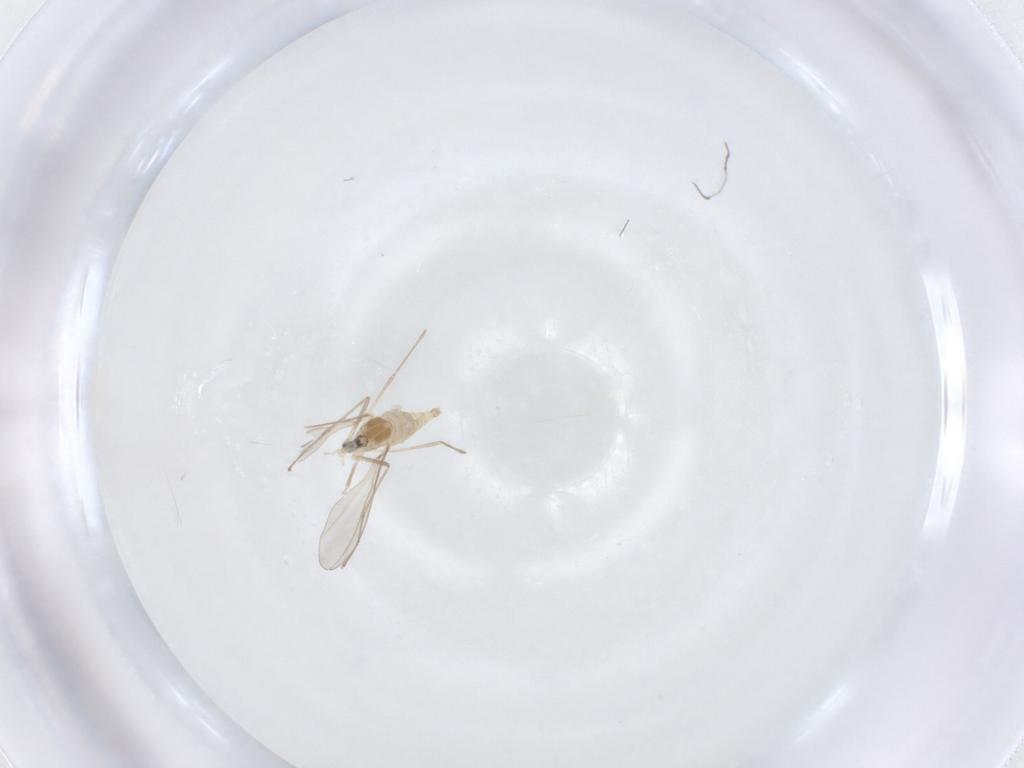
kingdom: Animalia
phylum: Arthropoda
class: Insecta
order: Diptera
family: Cecidomyiidae
